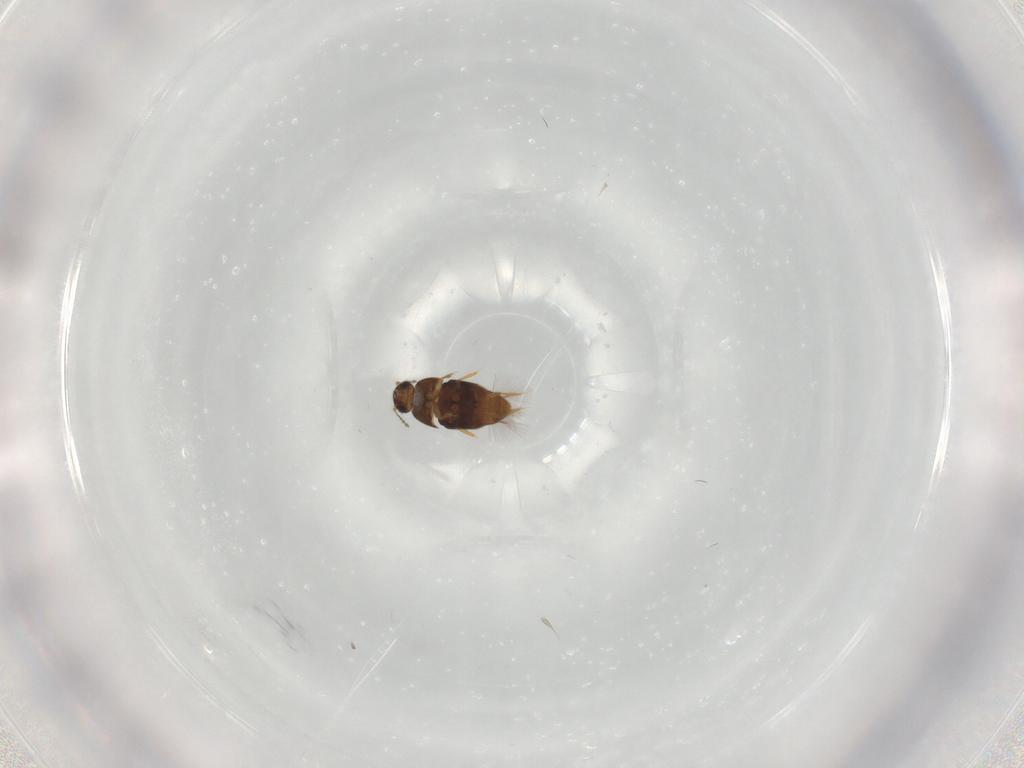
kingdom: Animalia
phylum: Arthropoda
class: Insecta
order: Coleoptera
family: Ptiliidae
